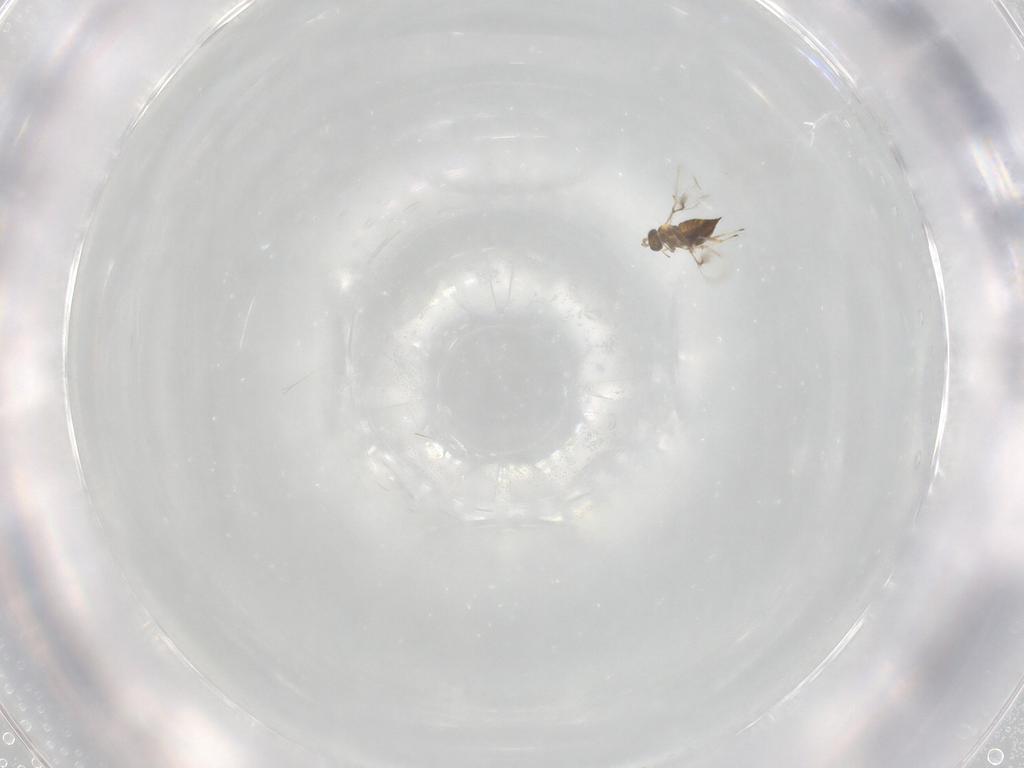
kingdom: Animalia
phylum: Arthropoda
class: Insecta
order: Hymenoptera
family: Trichogrammatidae
